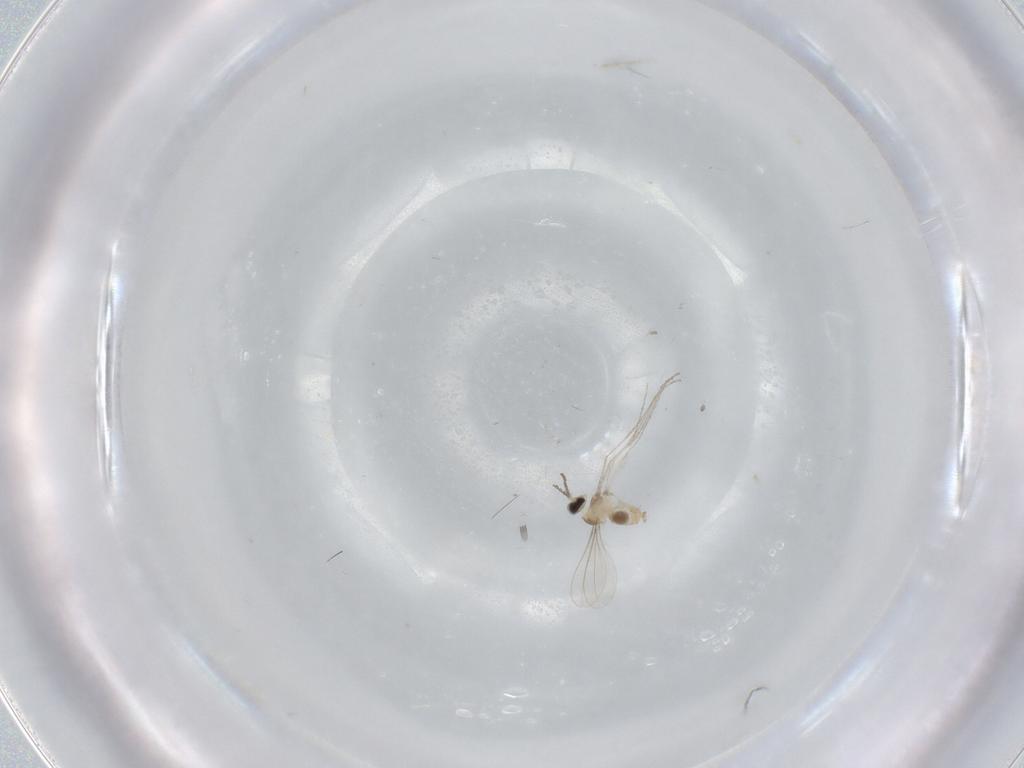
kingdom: Animalia
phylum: Arthropoda
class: Insecta
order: Diptera
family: Cecidomyiidae
